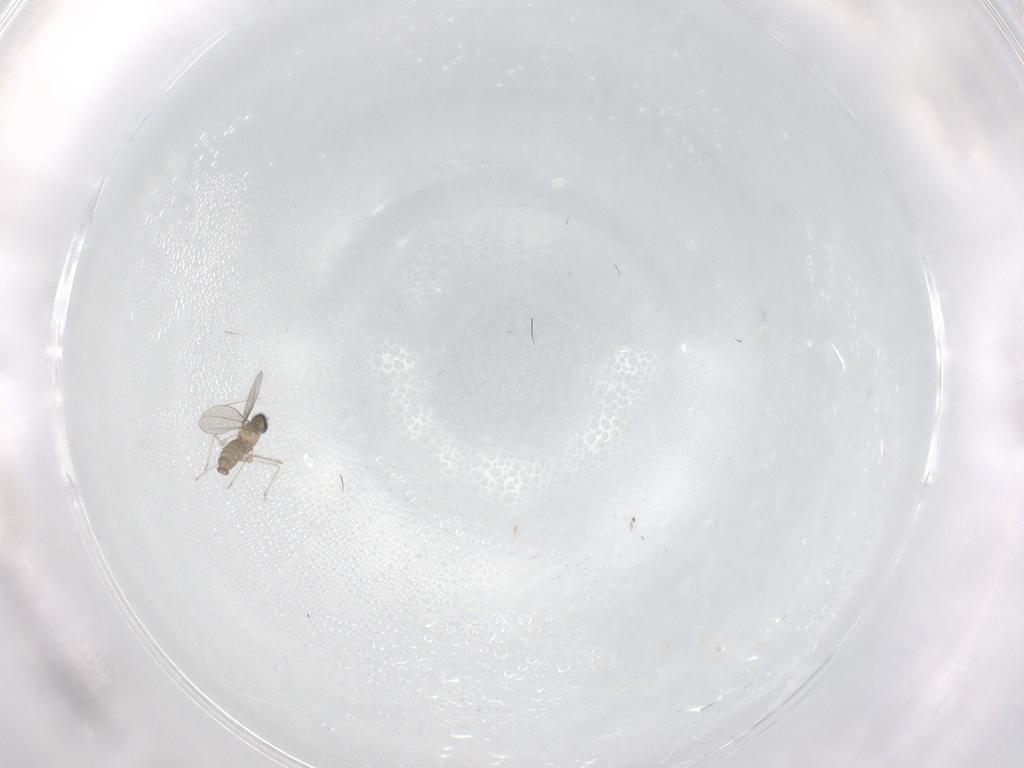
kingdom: Animalia
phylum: Arthropoda
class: Insecta
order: Diptera
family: Cecidomyiidae
